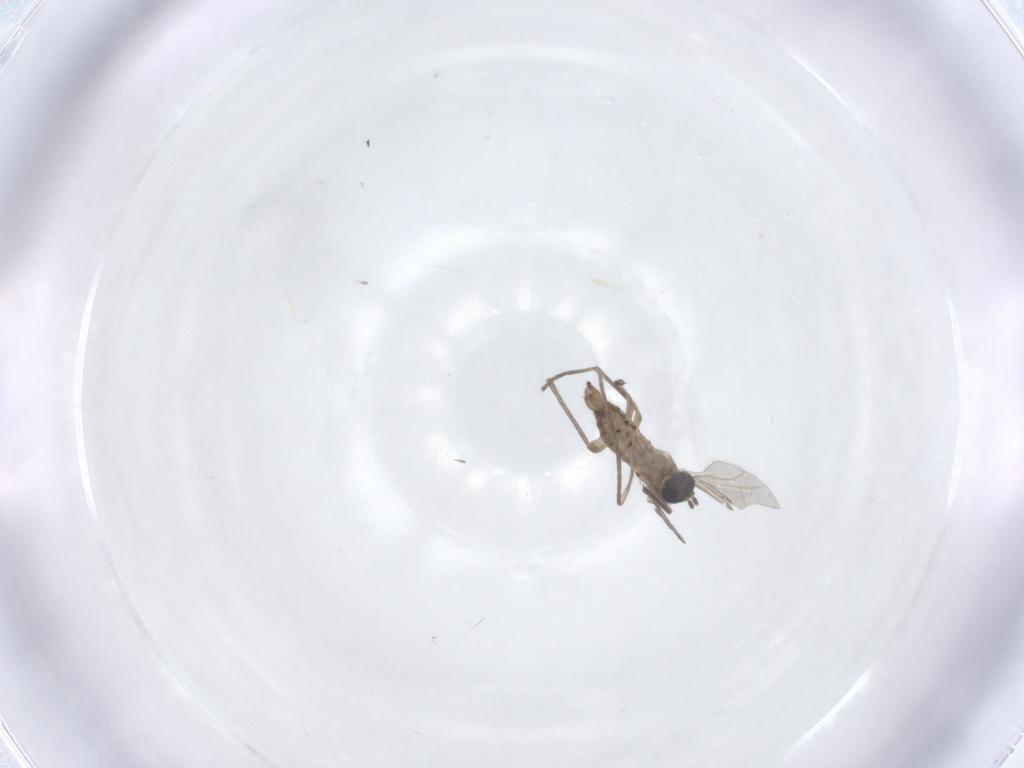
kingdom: Animalia
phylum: Arthropoda
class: Insecta
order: Diptera
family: Sciaridae
